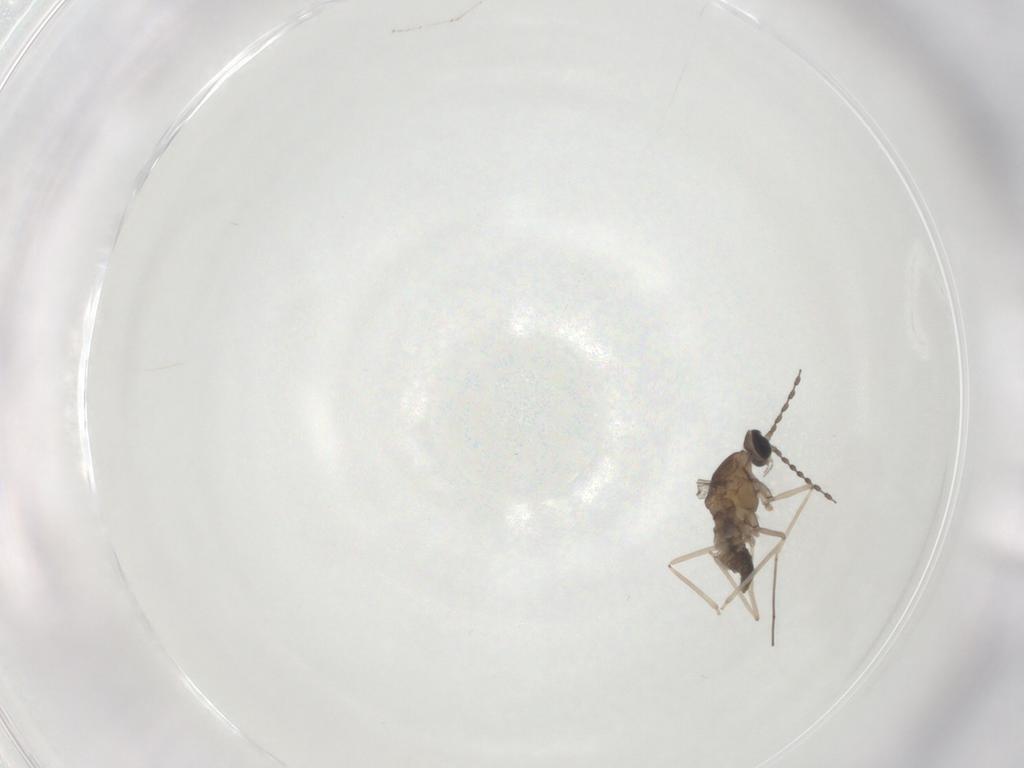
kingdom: Animalia
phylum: Arthropoda
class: Insecta
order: Diptera
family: Cecidomyiidae
